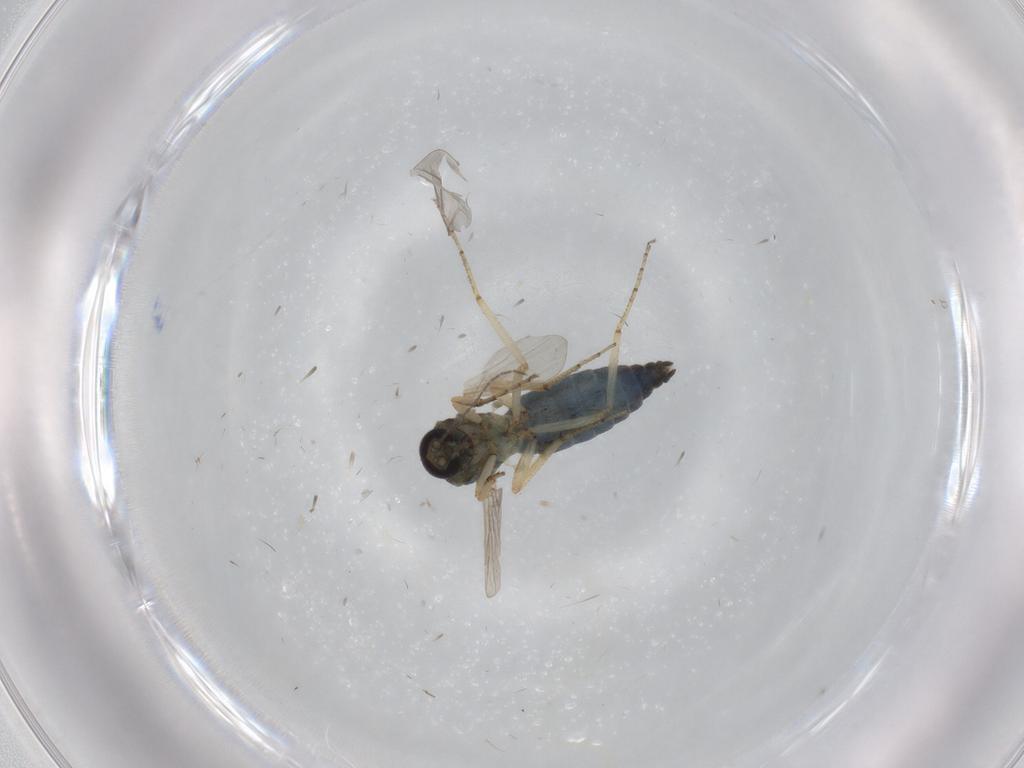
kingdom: Animalia
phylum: Arthropoda
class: Insecta
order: Diptera
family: Ceratopogonidae
